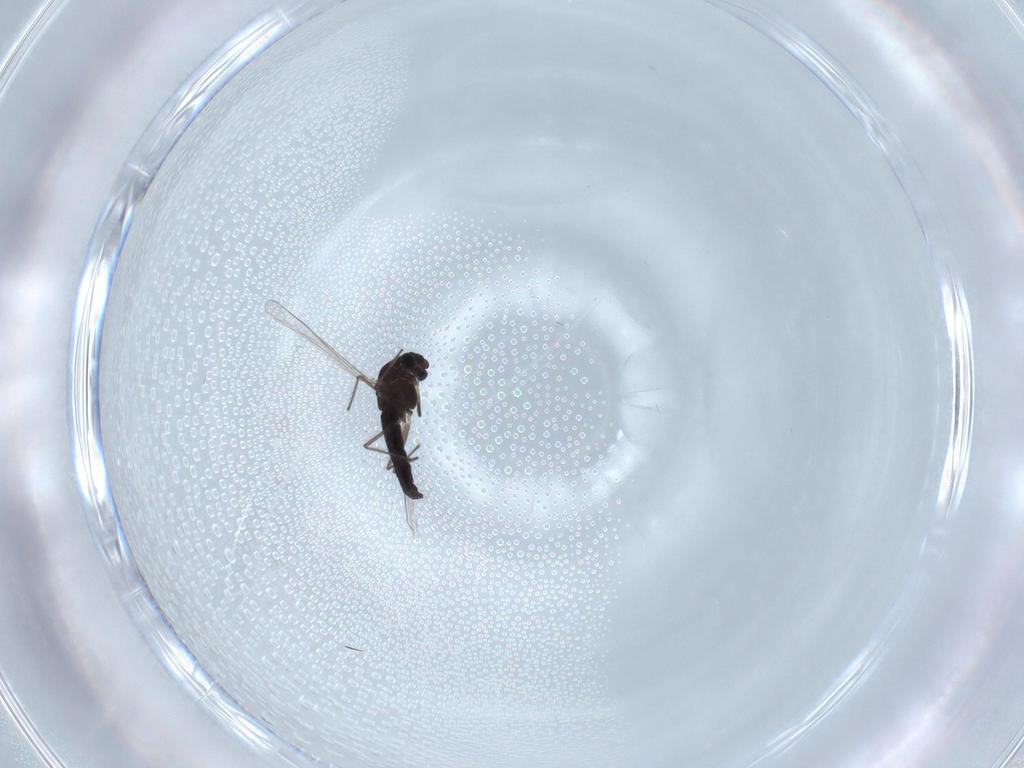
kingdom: Animalia
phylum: Arthropoda
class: Insecta
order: Diptera
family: Chironomidae
